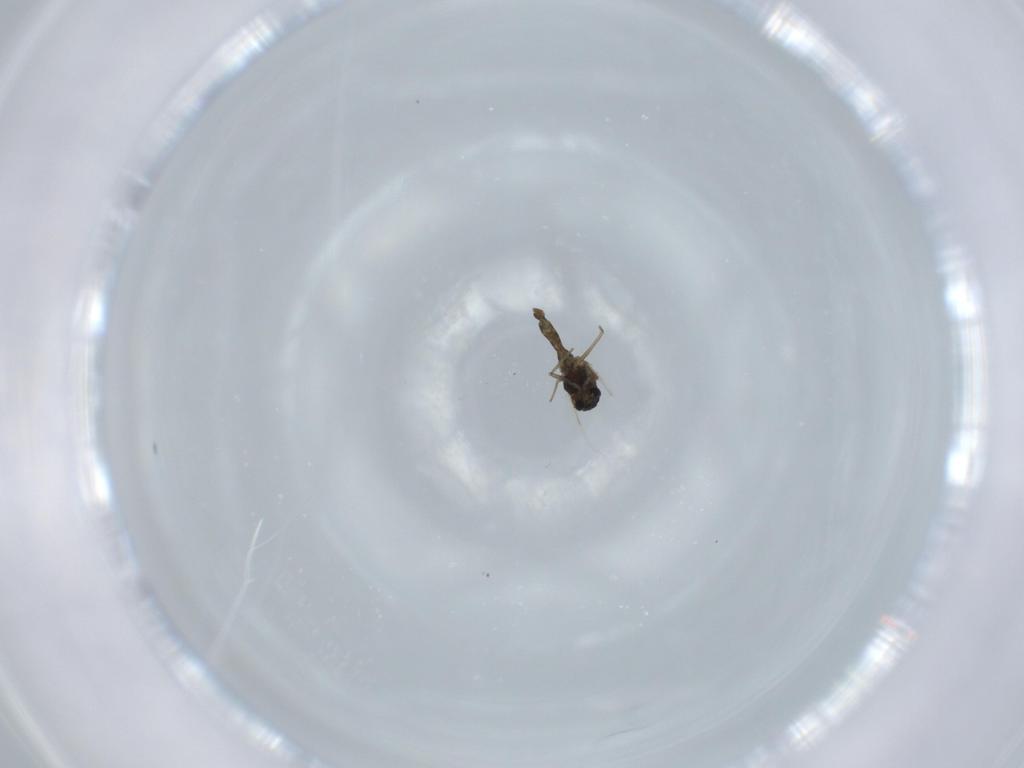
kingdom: Animalia
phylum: Arthropoda
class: Insecta
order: Diptera
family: Chironomidae
